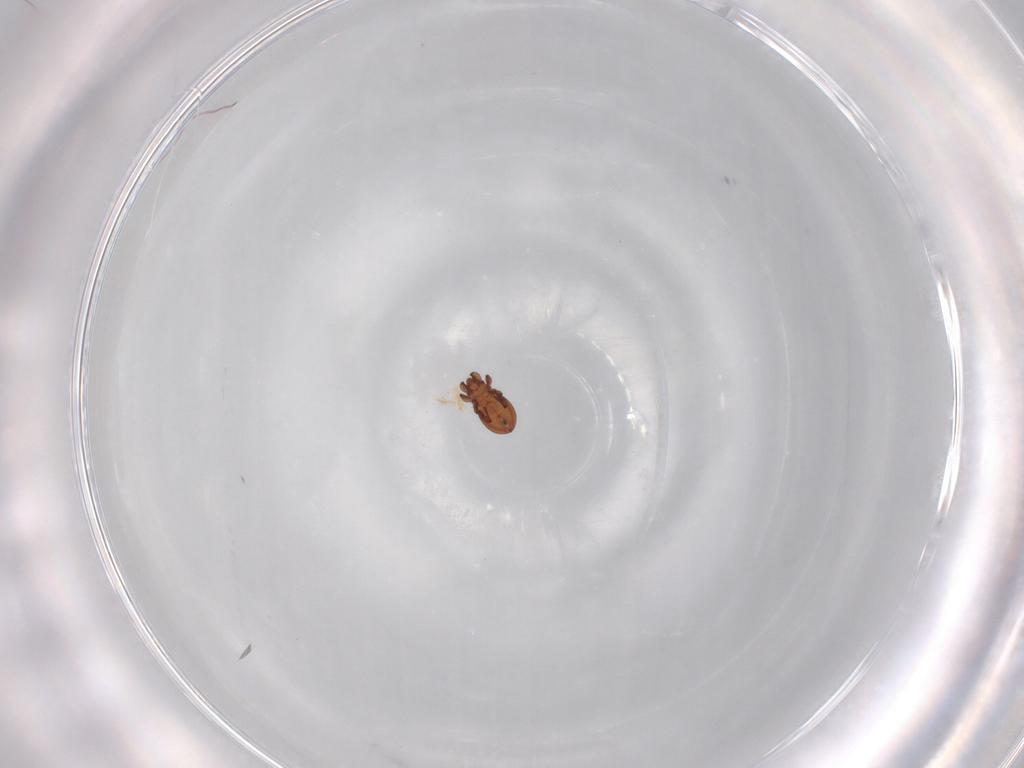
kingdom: Animalia
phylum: Arthropoda
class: Arachnida
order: Sarcoptiformes
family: Eremaeidae
